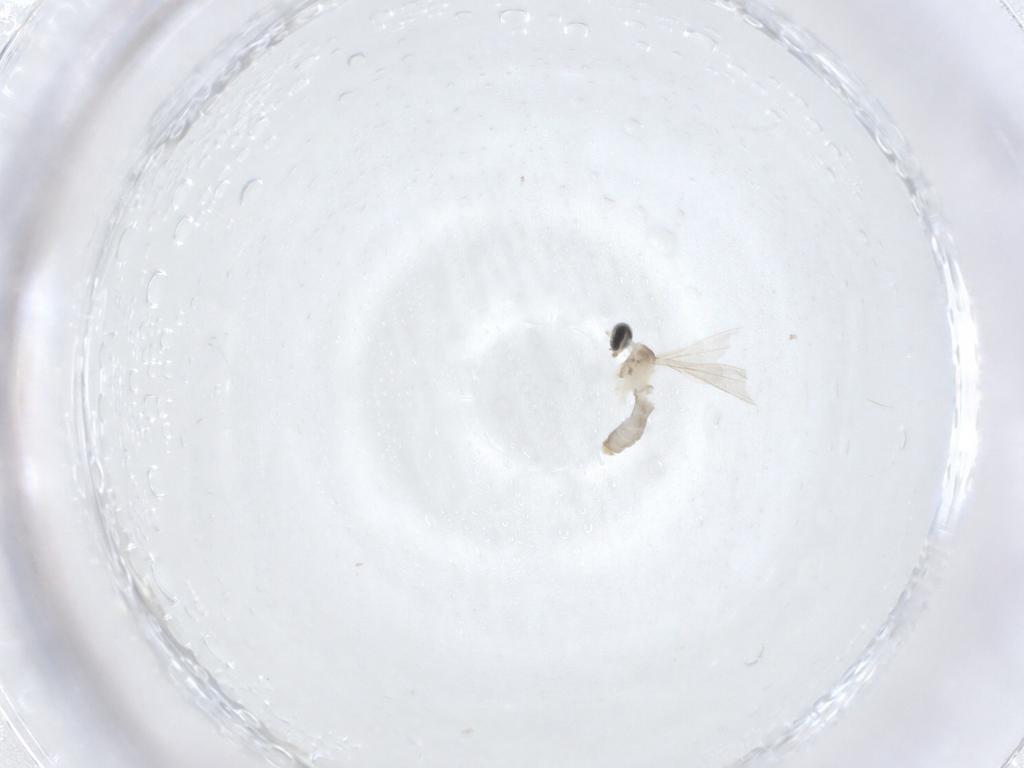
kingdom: Animalia
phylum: Arthropoda
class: Insecta
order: Diptera
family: Cecidomyiidae
